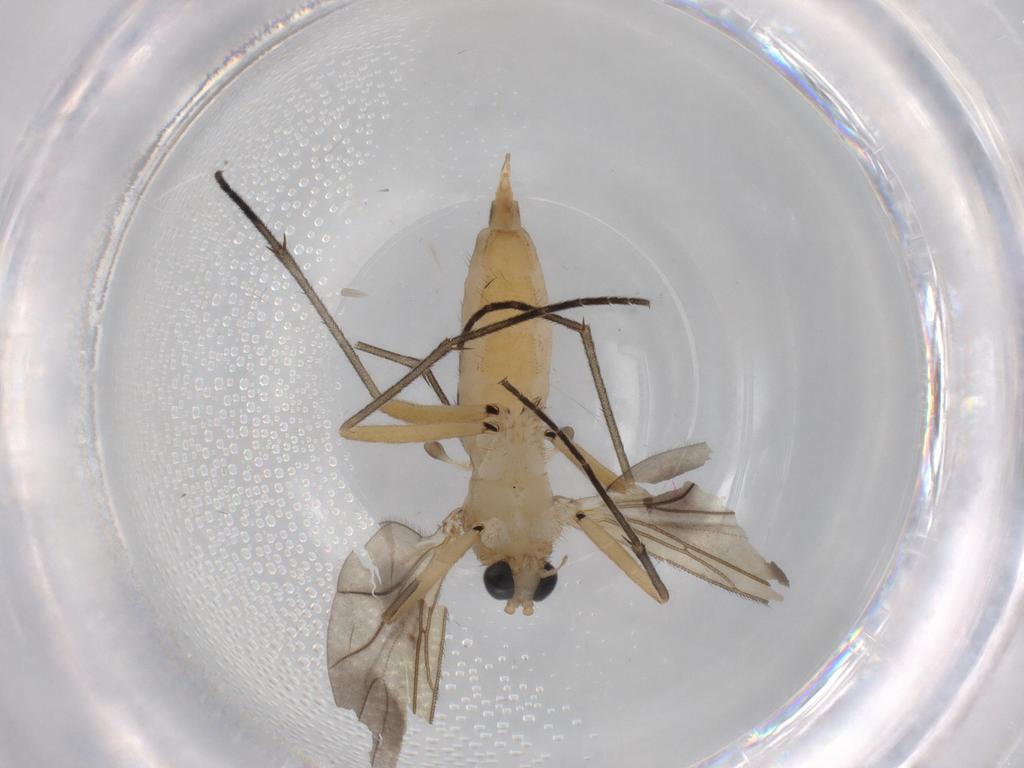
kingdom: Animalia
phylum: Arthropoda
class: Insecta
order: Diptera
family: Sciaridae
